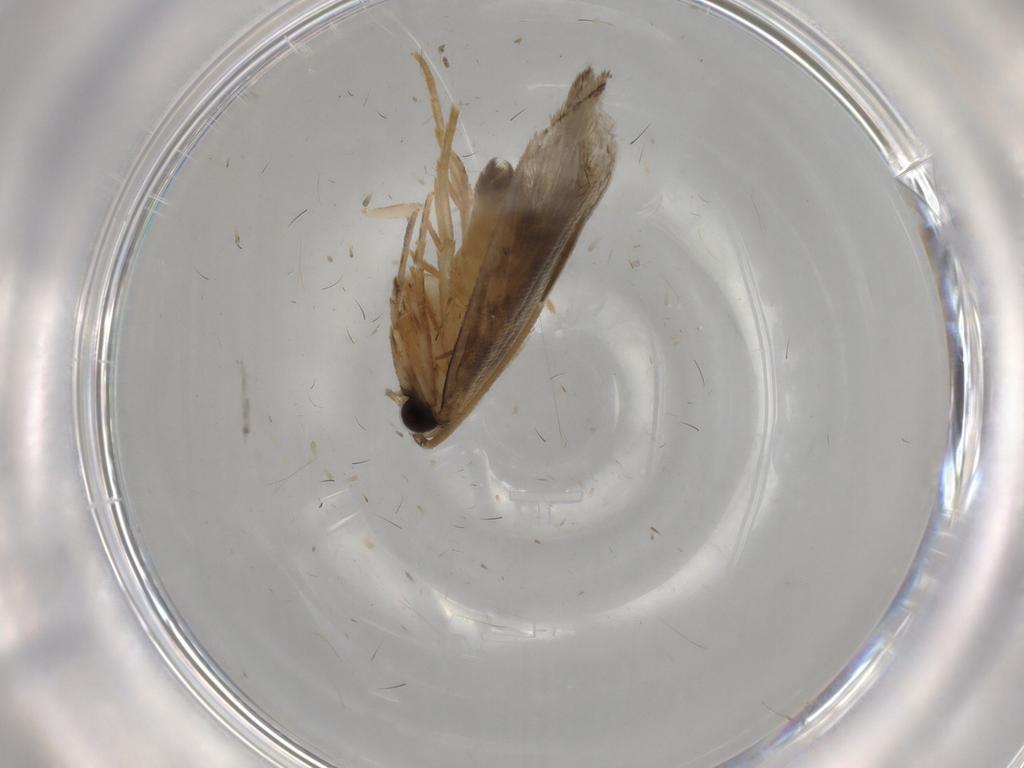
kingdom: Animalia
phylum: Arthropoda
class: Insecta
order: Lepidoptera
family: Tineidae
